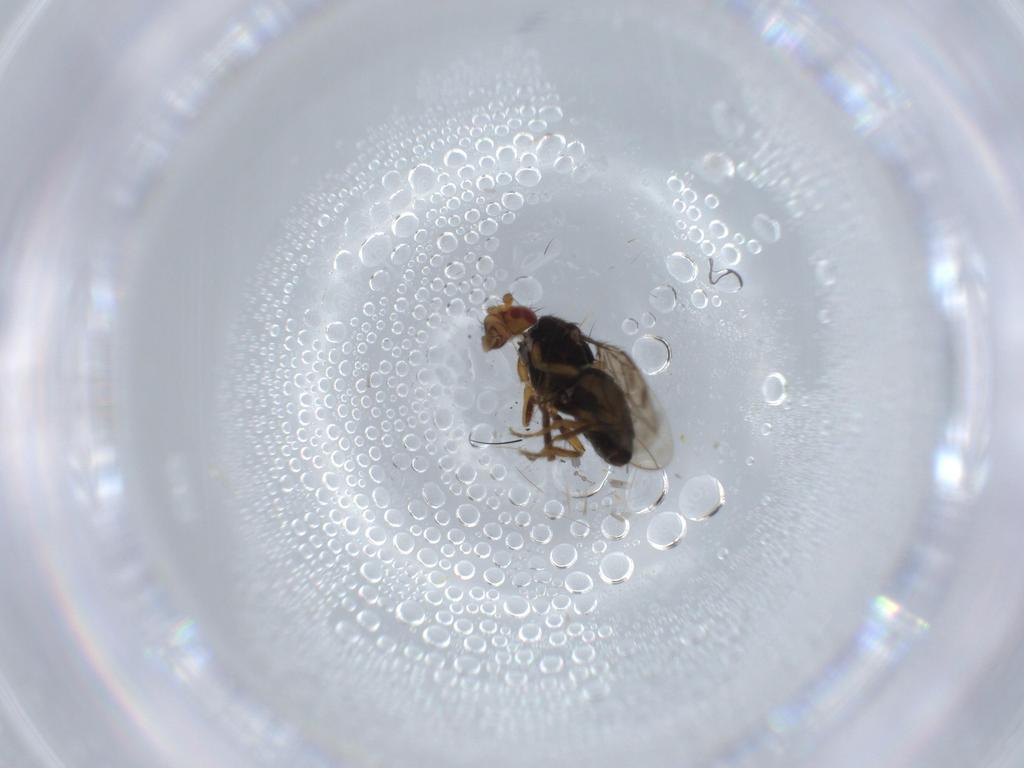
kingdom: Animalia
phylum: Arthropoda
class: Insecta
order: Diptera
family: Sphaeroceridae
